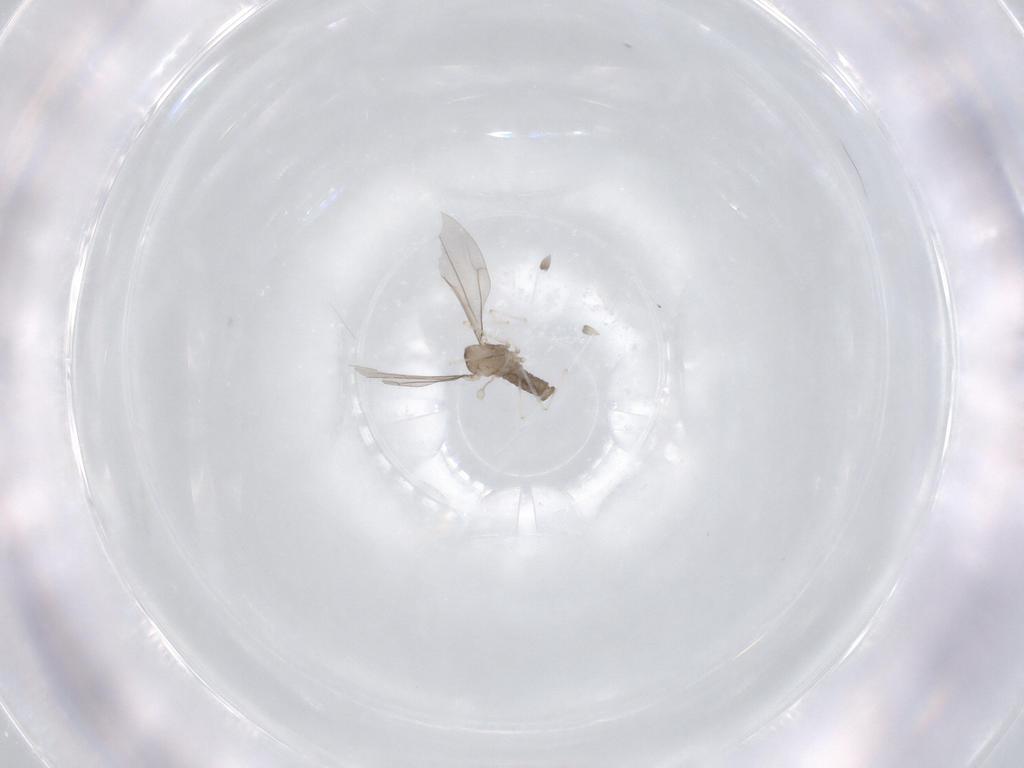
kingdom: Animalia
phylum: Arthropoda
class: Insecta
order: Diptera
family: Cecidomyiidae
